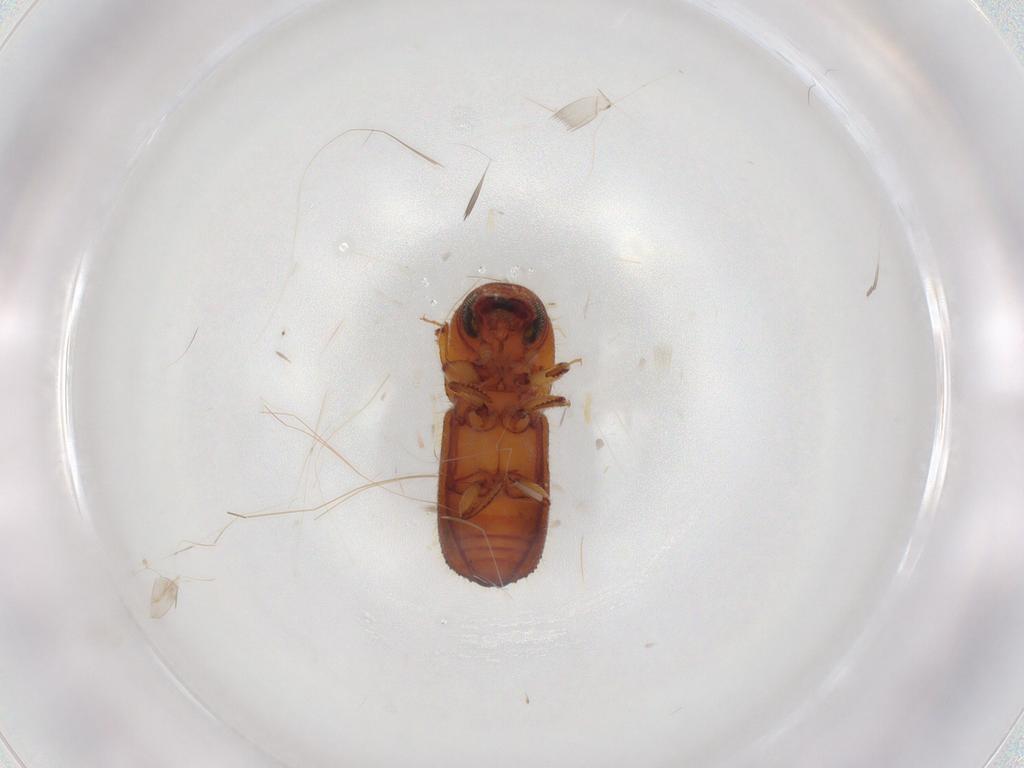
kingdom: Animalia
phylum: Arthropoda
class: Insecta
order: Coleoptera
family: Curculionidae
